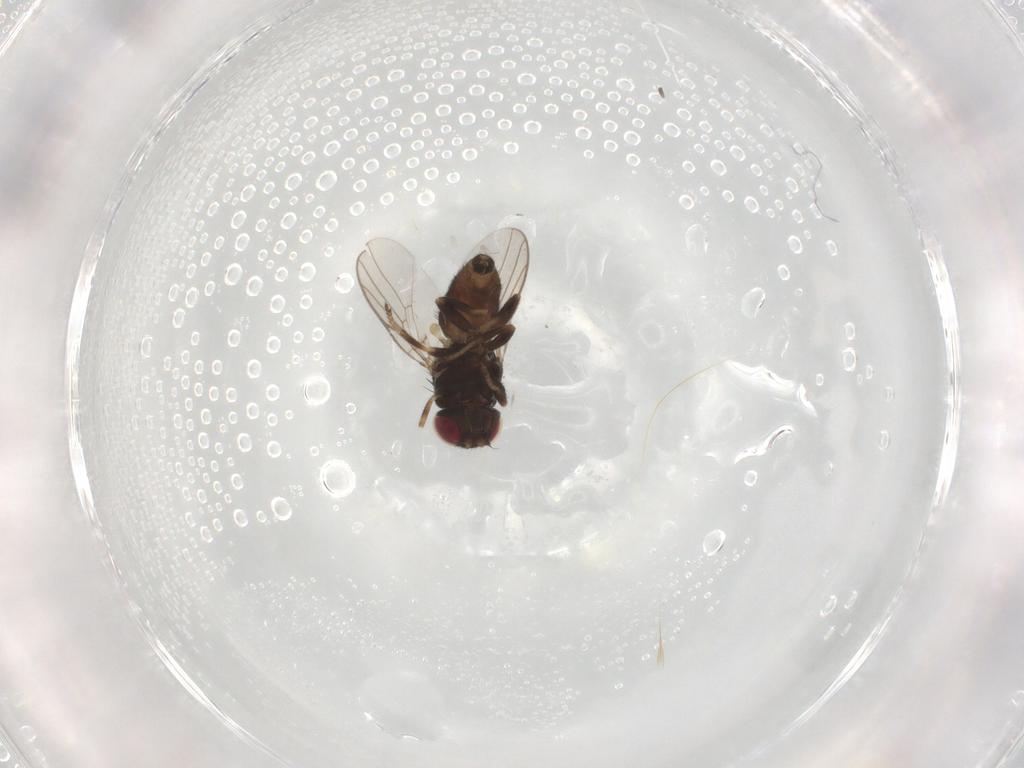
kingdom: Animalia
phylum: Arthropoda
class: Insecta
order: Diptera
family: Chloropidae
